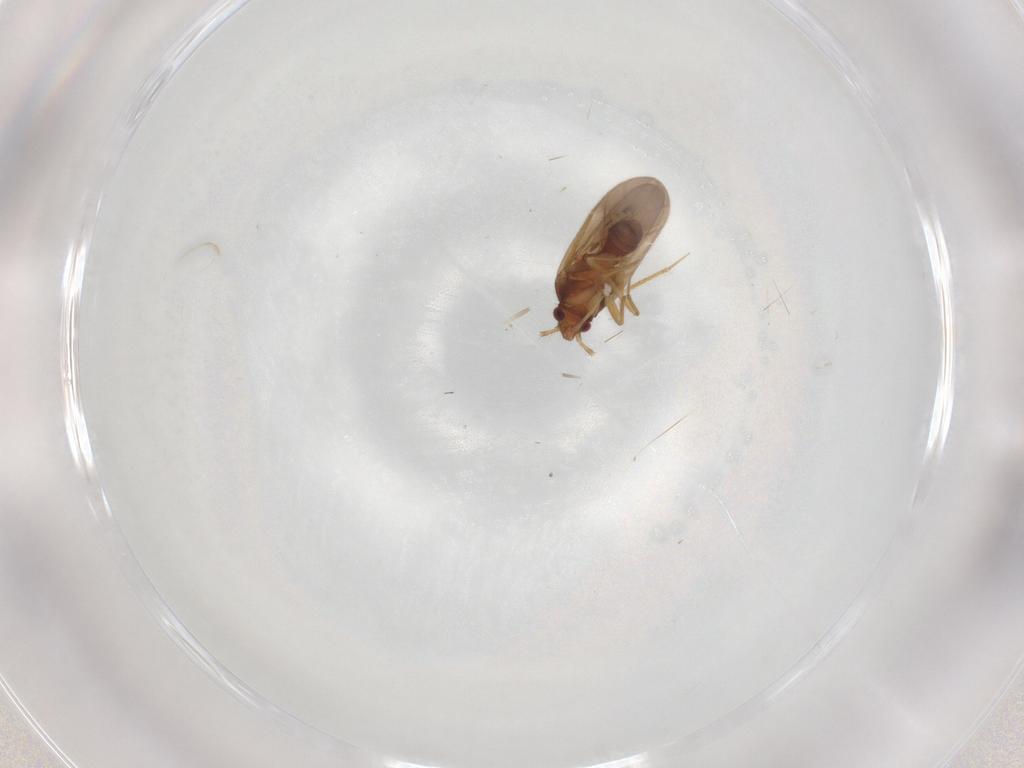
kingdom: Animalia
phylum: Arthropoda
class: Insecta
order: Hemiptera
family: Ceratocombidae
